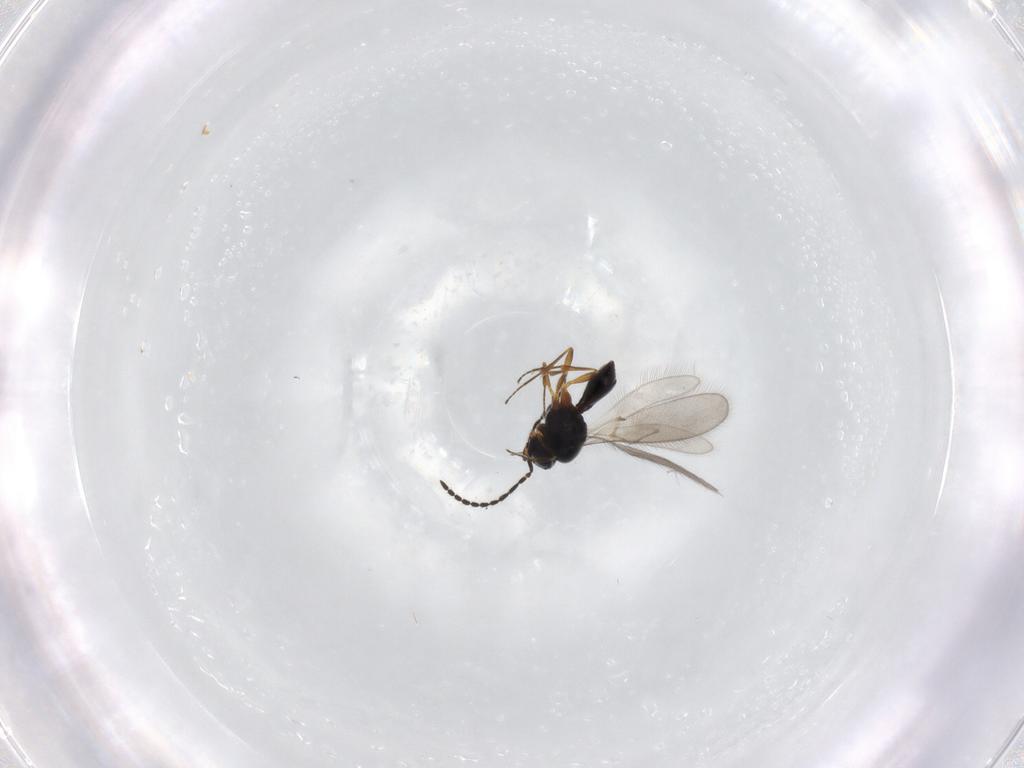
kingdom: Animalia
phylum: Arthropoda
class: Insecta
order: Hymenoptera
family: Scelionidae
